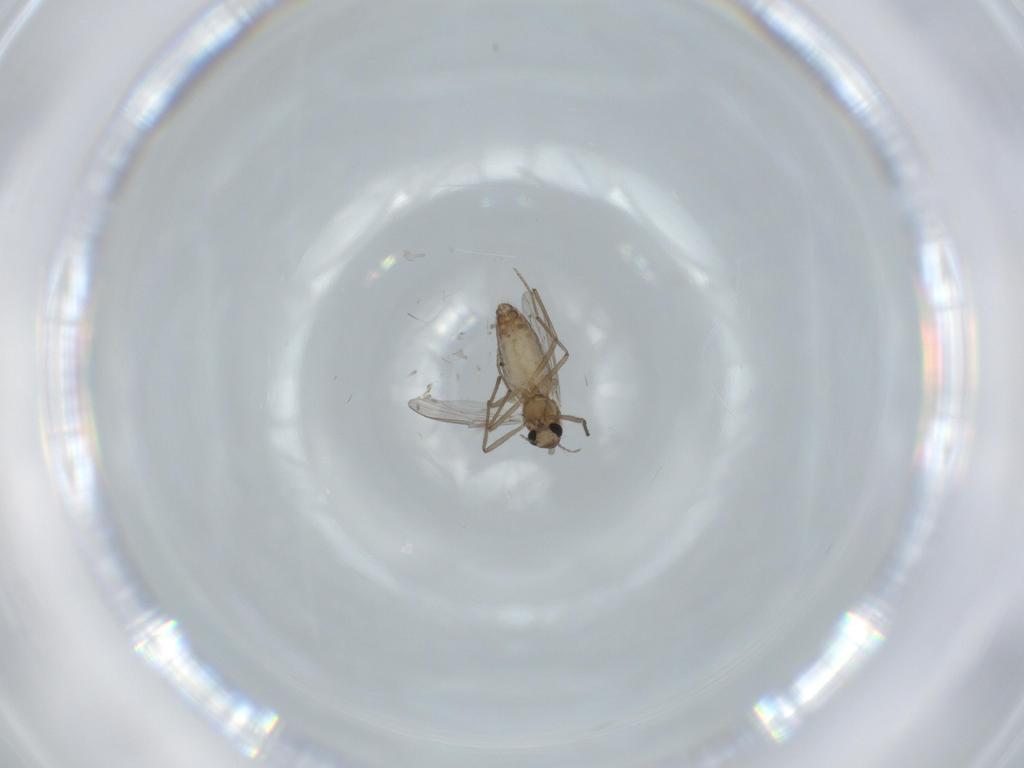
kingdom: Animalia
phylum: Arthropoda
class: Insecta
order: Diptera
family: Chironomidae
